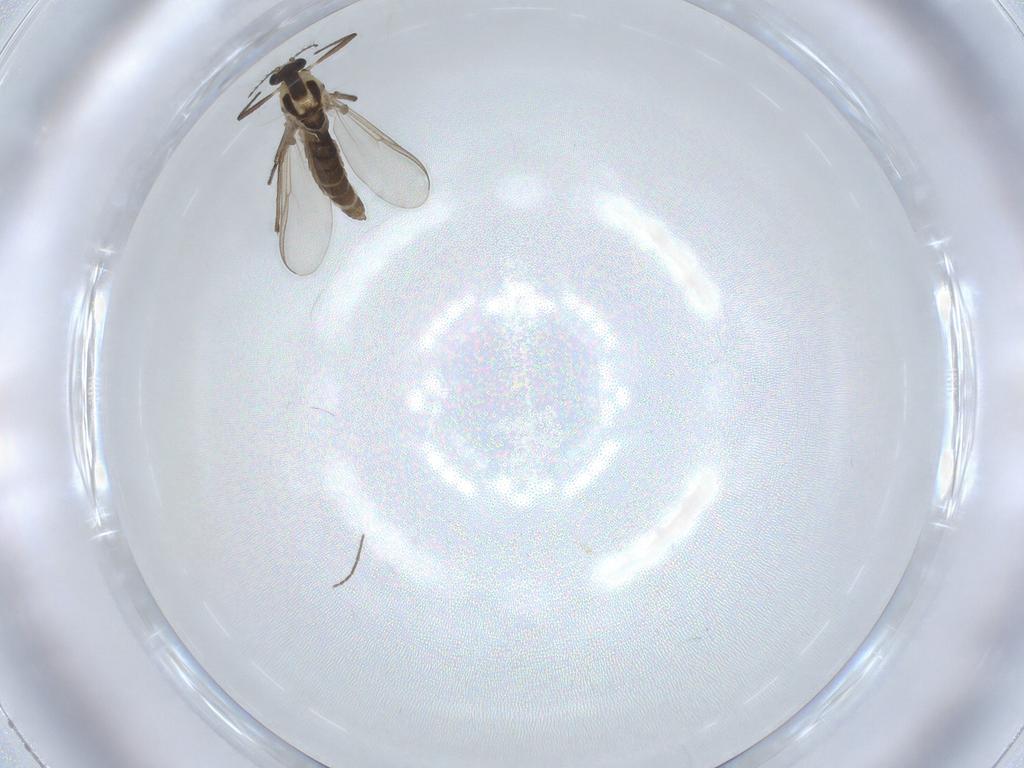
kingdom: Animalia
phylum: Arthropoda
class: Insecta
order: Diptera
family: Chironomidae
